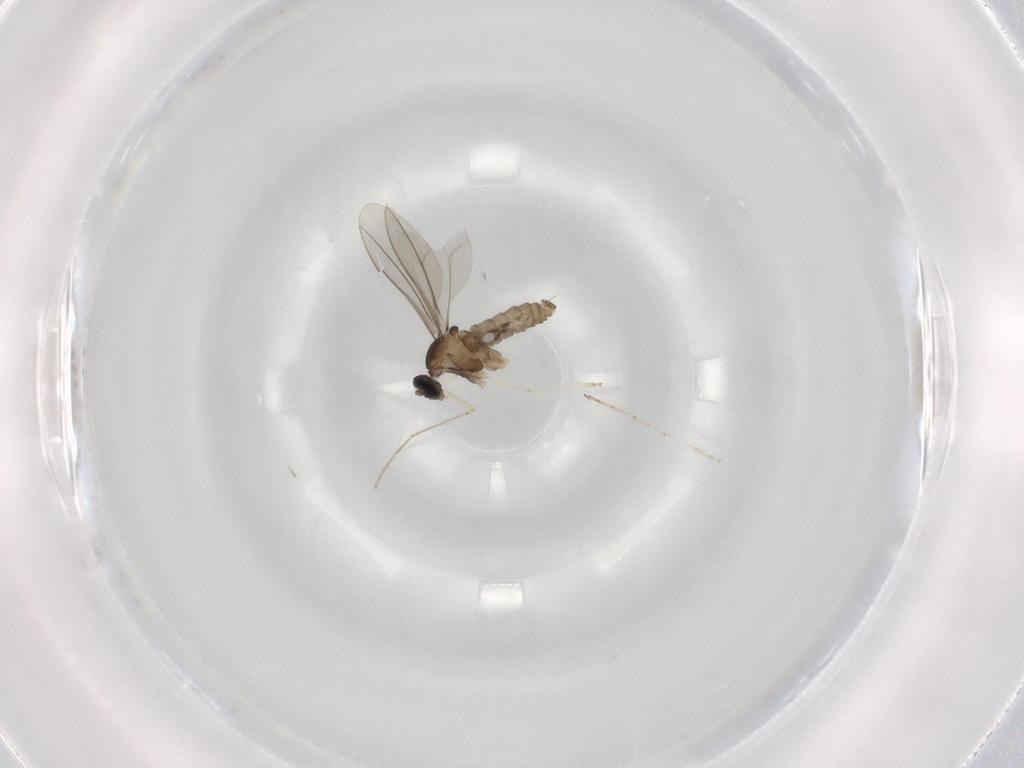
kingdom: Animalia
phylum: Arthropoda
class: Insecta
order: Diptera
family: Chironomidae
